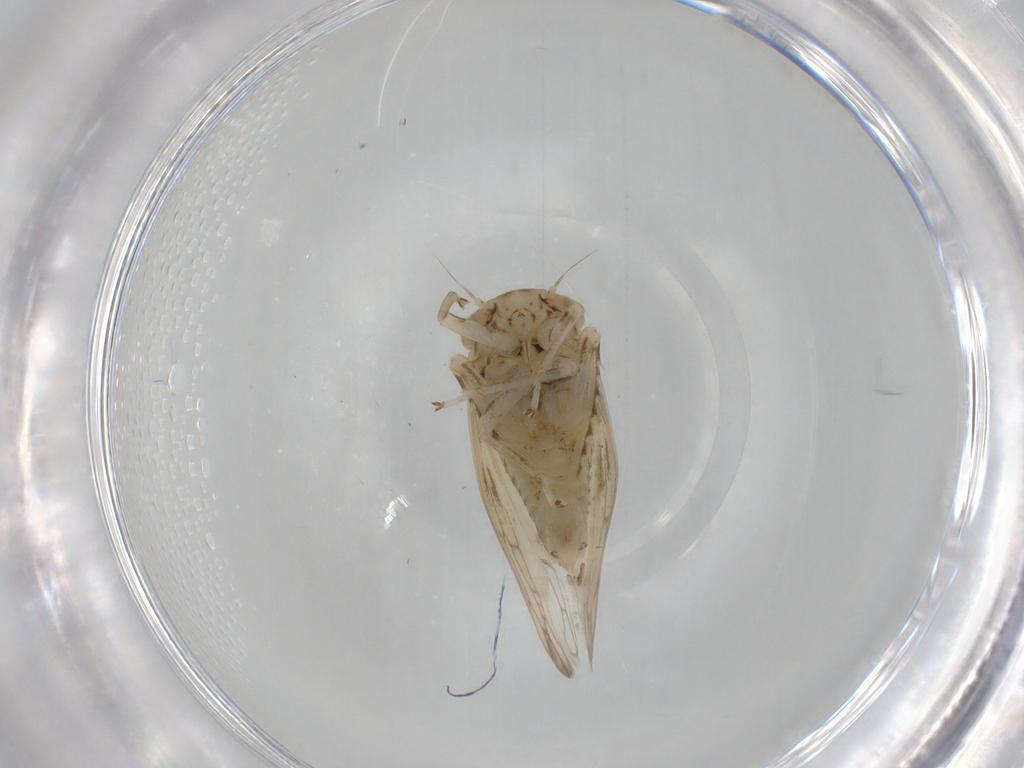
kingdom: Animalia
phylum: Arthropoda
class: Insecta
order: Hemiptera
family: Cicadellidae
